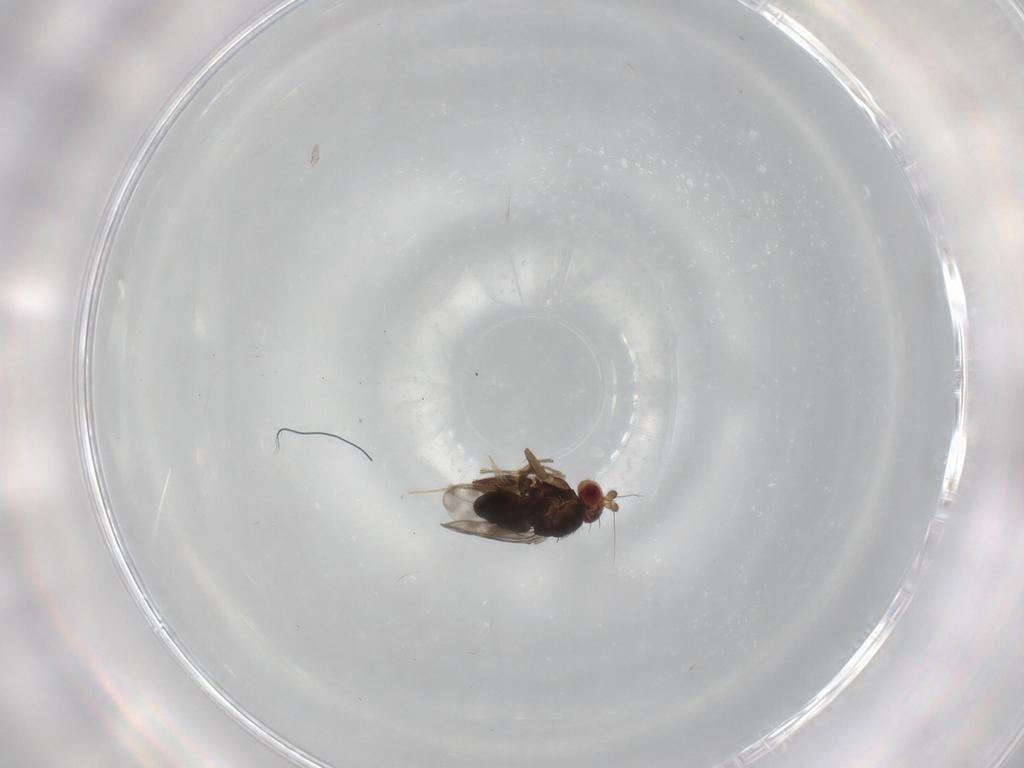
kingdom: Animalia
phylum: Arthropoda
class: Insecta
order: Diptera
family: Sphaeroceridae
